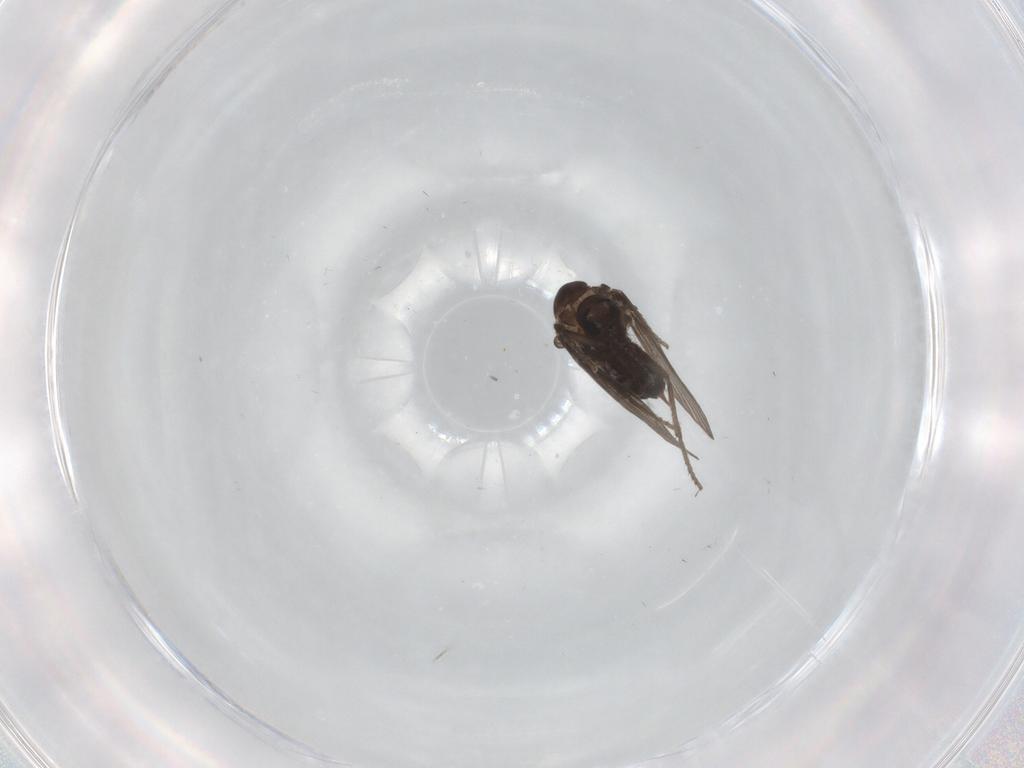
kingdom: Animalia
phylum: Arthropoda
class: Insecta
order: Diptera
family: Psychodidae
